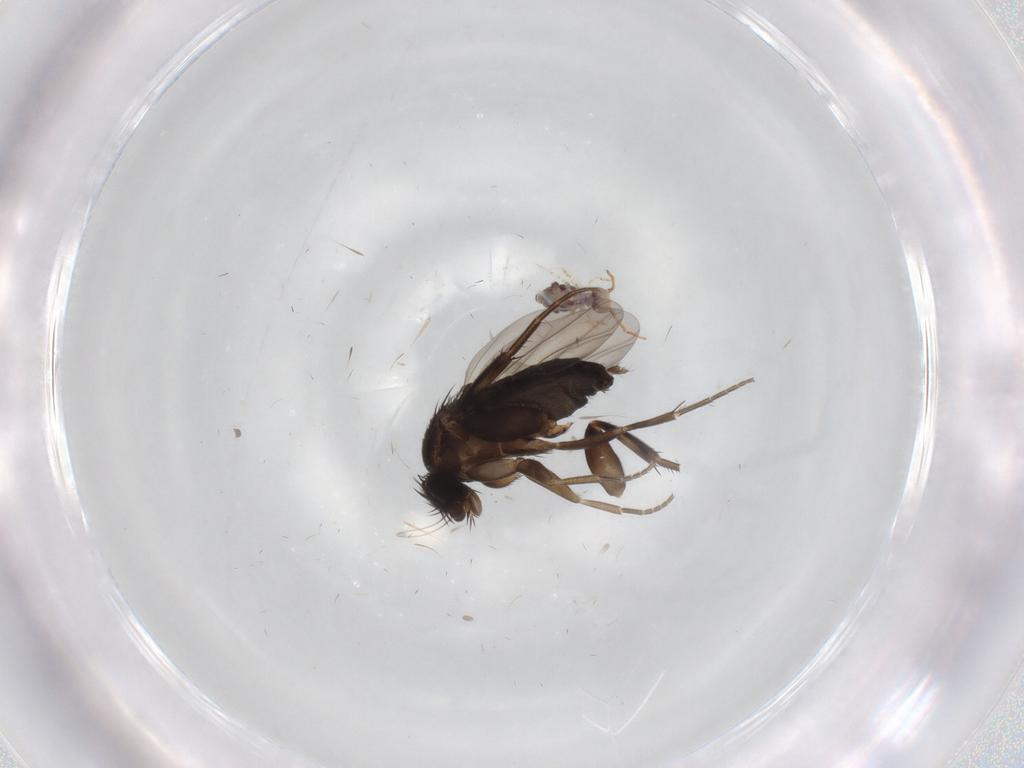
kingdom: Animalia
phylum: Arthropoda
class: Insecta
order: Diptera
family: Phoridae
